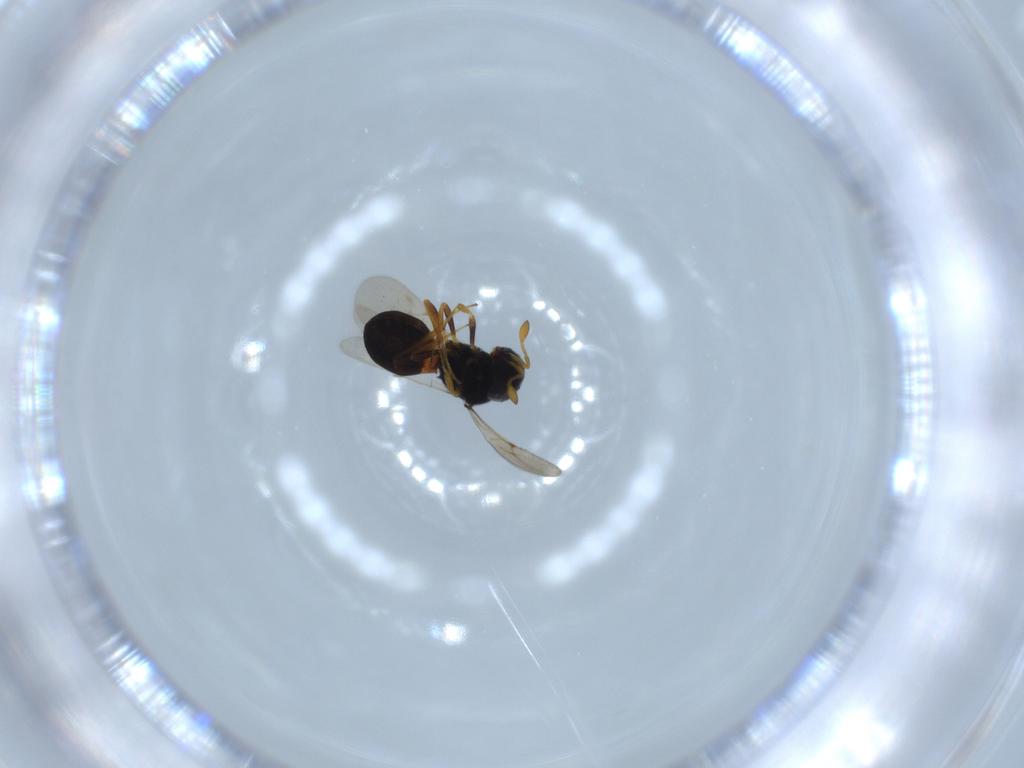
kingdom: Animalia
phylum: Arthropoda
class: Insecta
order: Hymenoptera
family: Scelionidae
